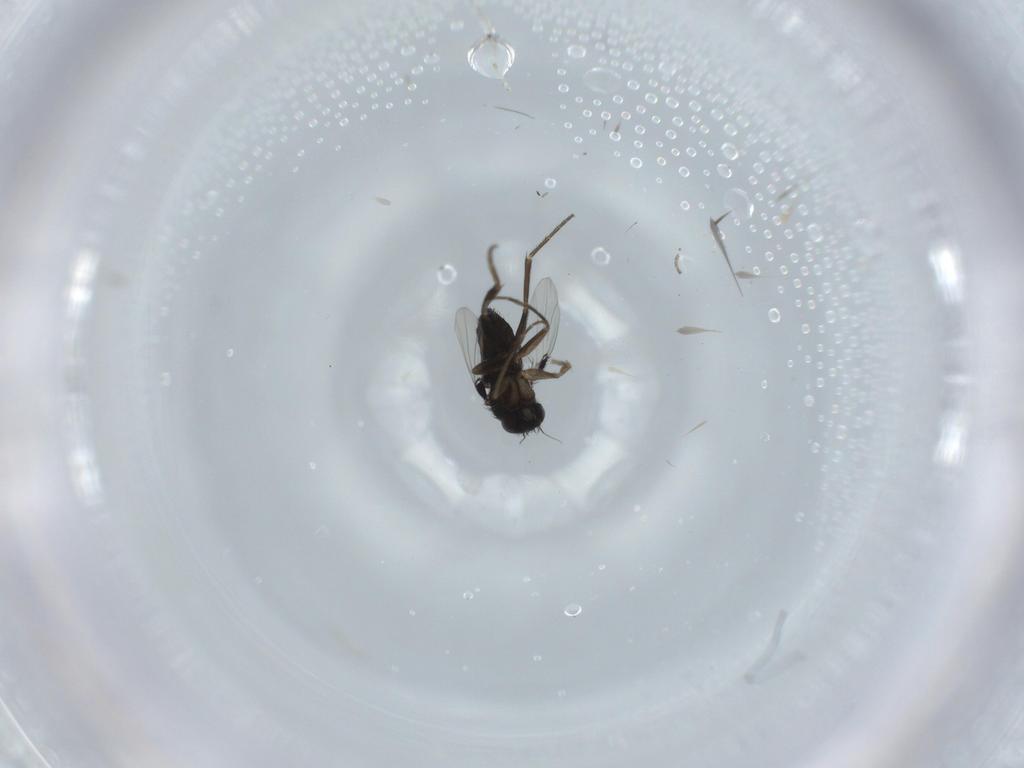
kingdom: Animalia
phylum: Arthropoda
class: Insecta
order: Diptera
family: Phoridae
